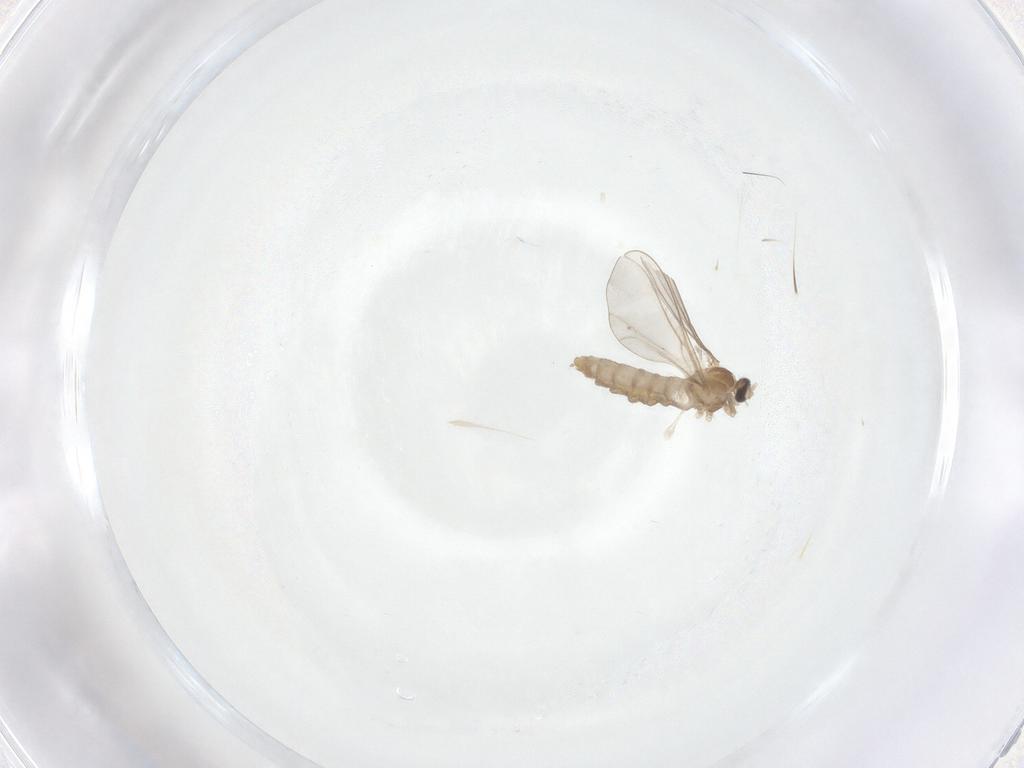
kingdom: Animalia
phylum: Arthropoda
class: Insecta
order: Diptera
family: Cecidomyiidae
